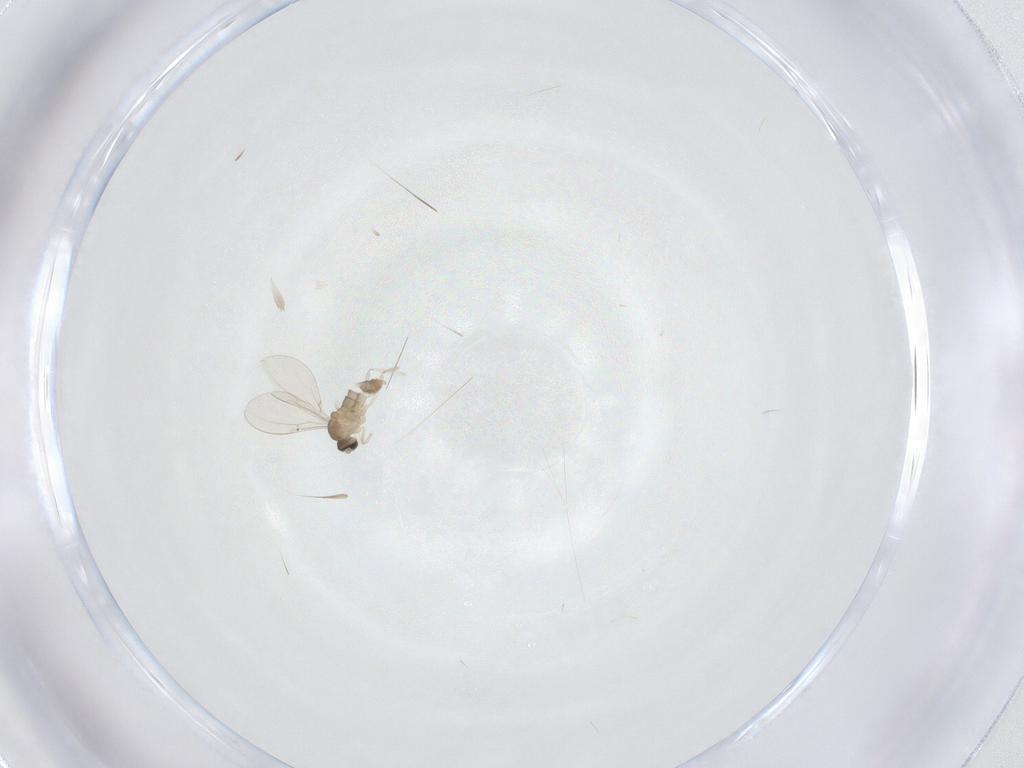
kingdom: Animalia
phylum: Arthropoda
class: Insecta
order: Diptera
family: Cecidomyiidae
